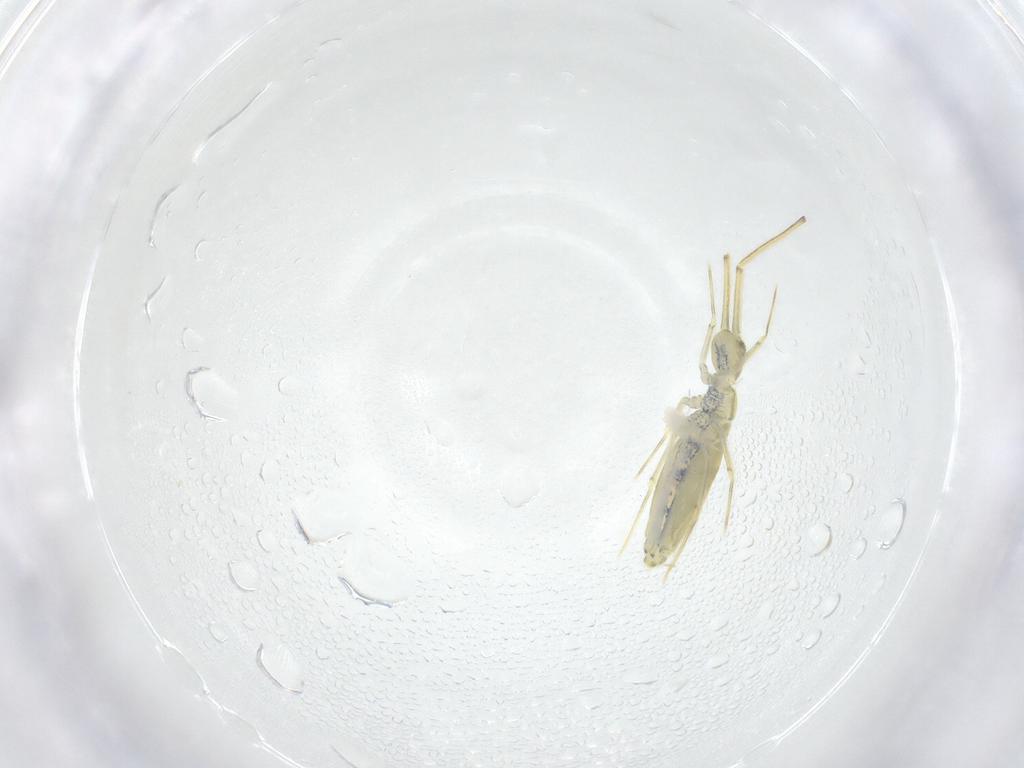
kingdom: Animalia
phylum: Arthropoda
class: Collembola
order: Entomobryomorpha
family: Paronellidae
